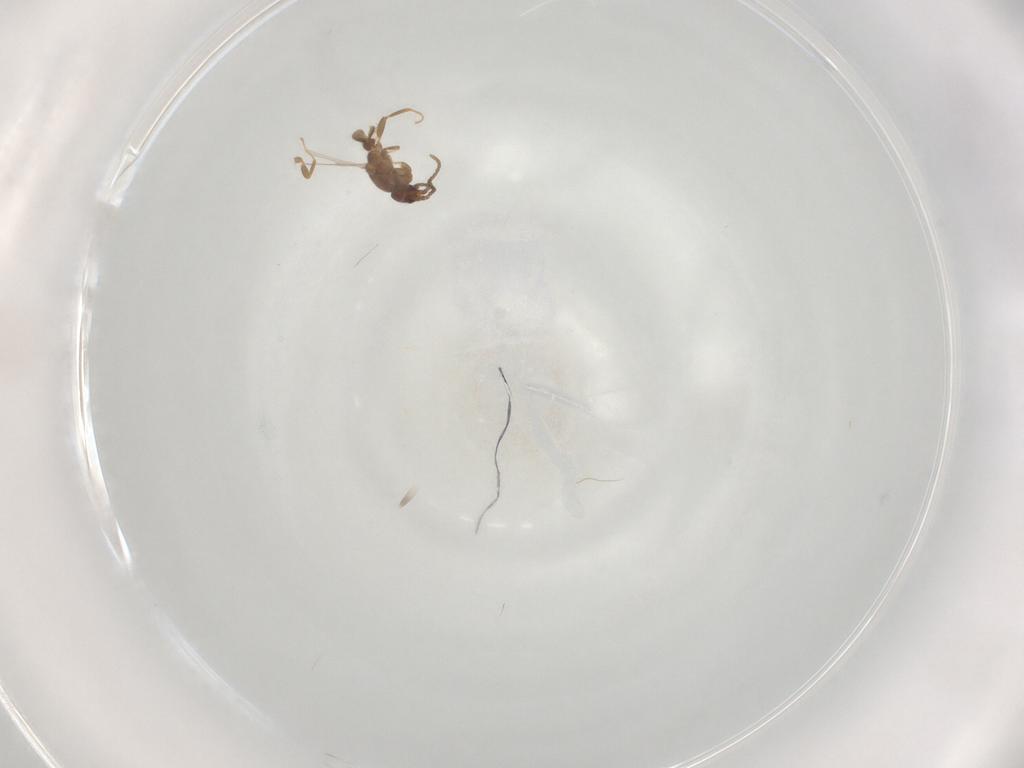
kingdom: Animalia
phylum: Arthropoda
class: Insecta
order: Hymenoptera
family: Formicidae
